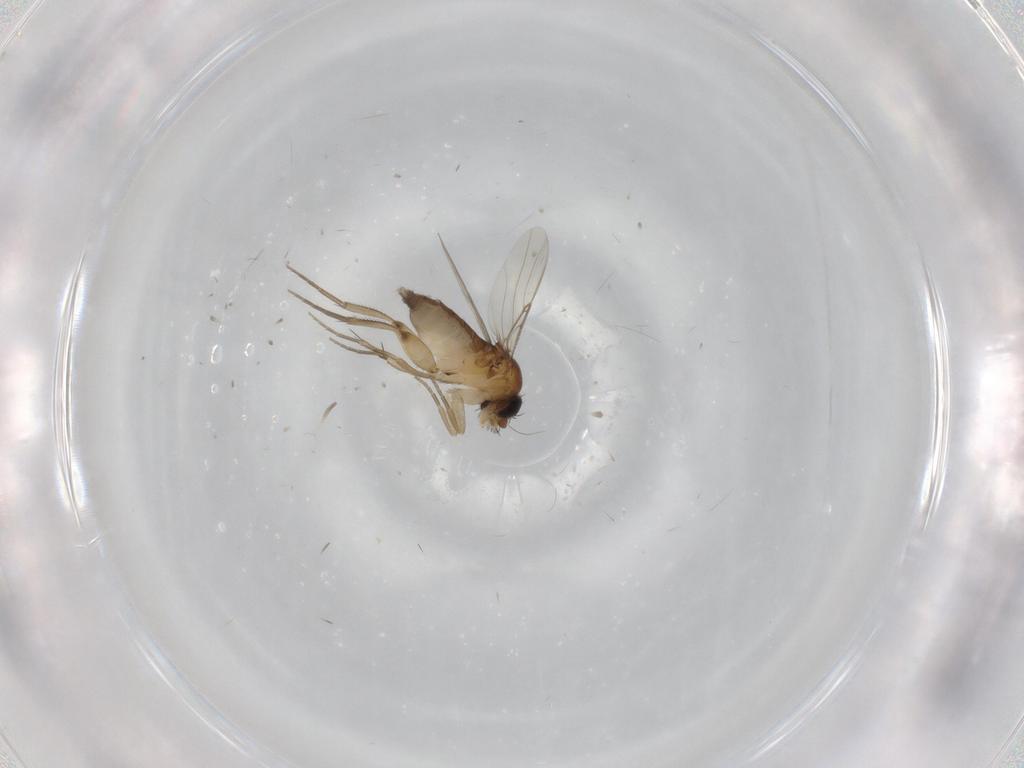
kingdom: Animalia
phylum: Arthropoda
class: Insecta
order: Diptera
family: Phoridae
